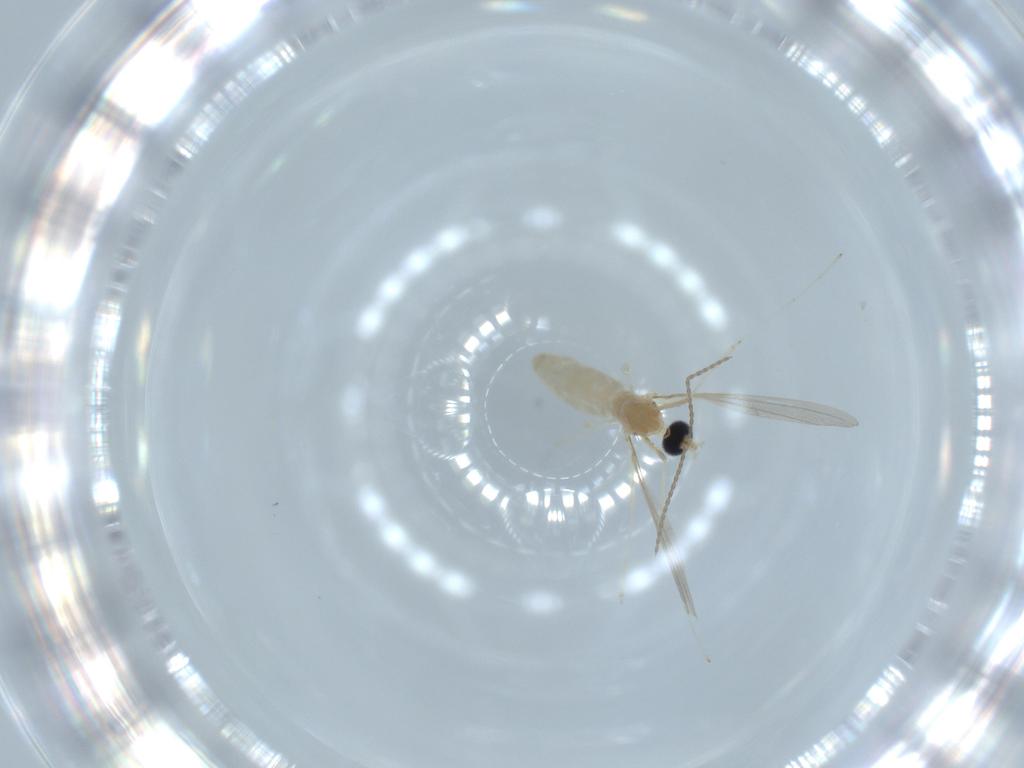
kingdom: Animalia
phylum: Arthropoda
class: Insecta
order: Diptera
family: Cecidomyiidae
